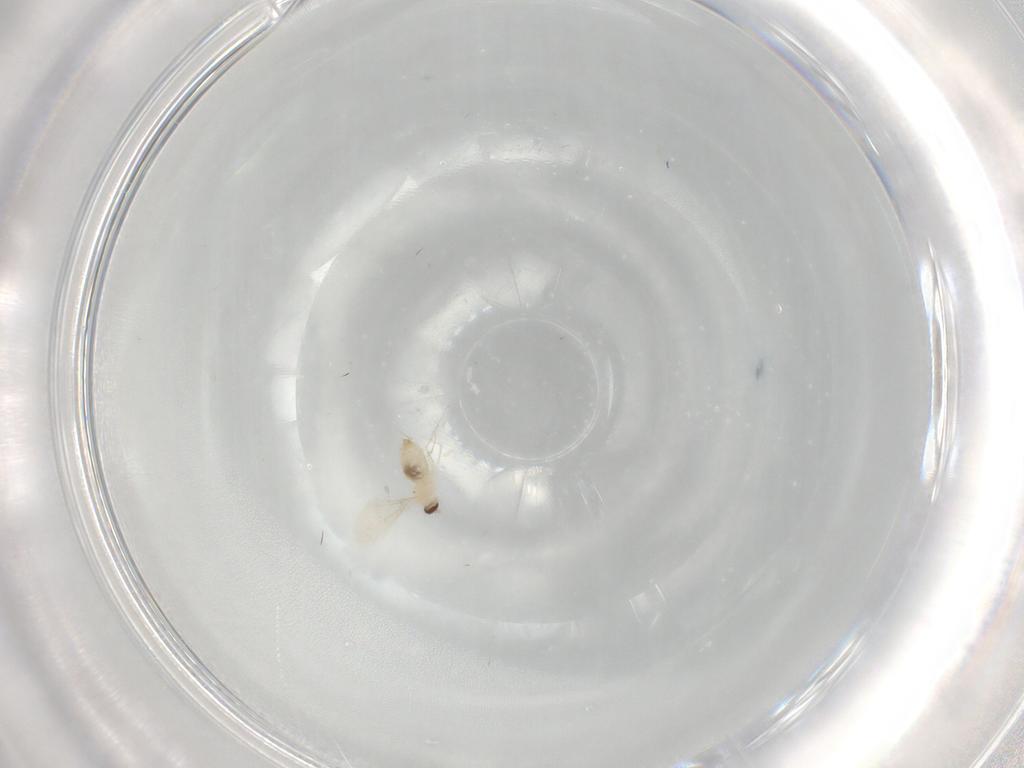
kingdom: Animalia
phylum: Arthropoda
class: Insecta
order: Diptera
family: Cecidomyiidae
